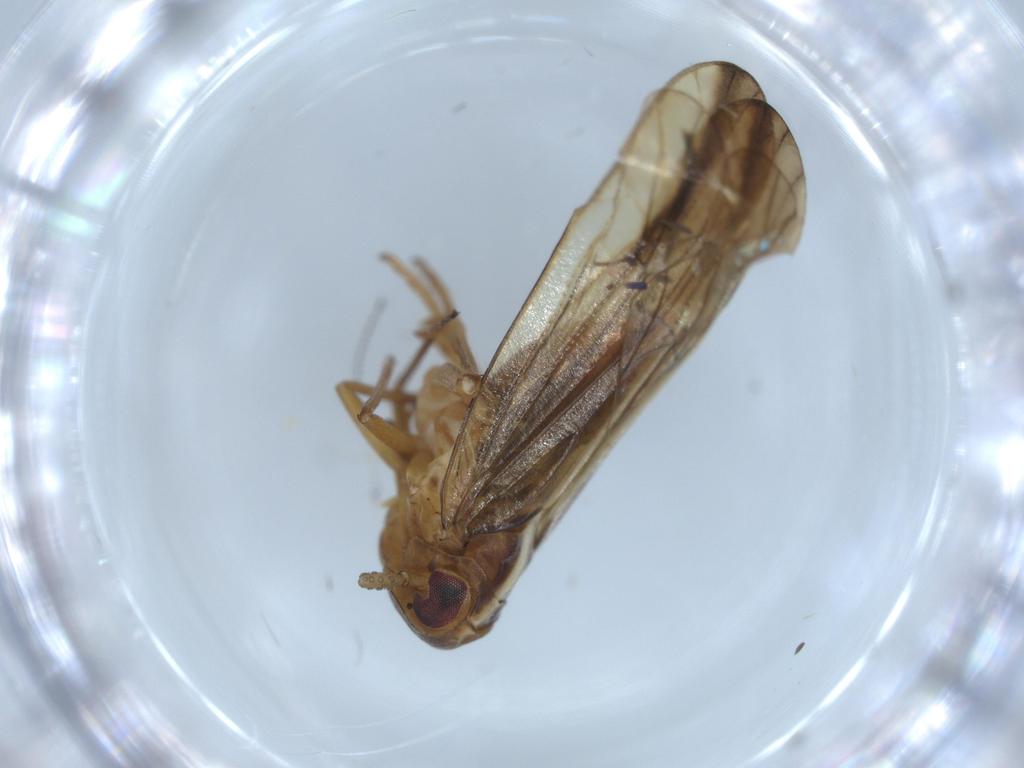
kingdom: Animalia
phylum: Arthropoda
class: Insecta
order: Hemiptera
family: Delphacidae
